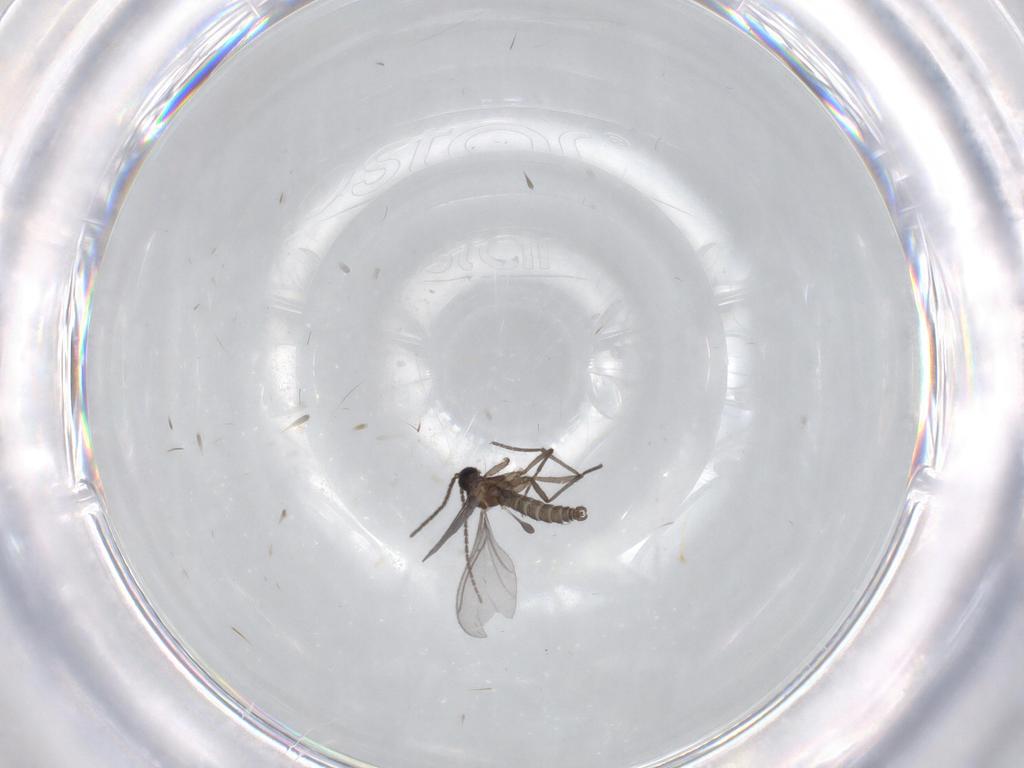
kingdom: Animalia
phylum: Arthropoda
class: Insecta
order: Diptera
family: Sciaridae
